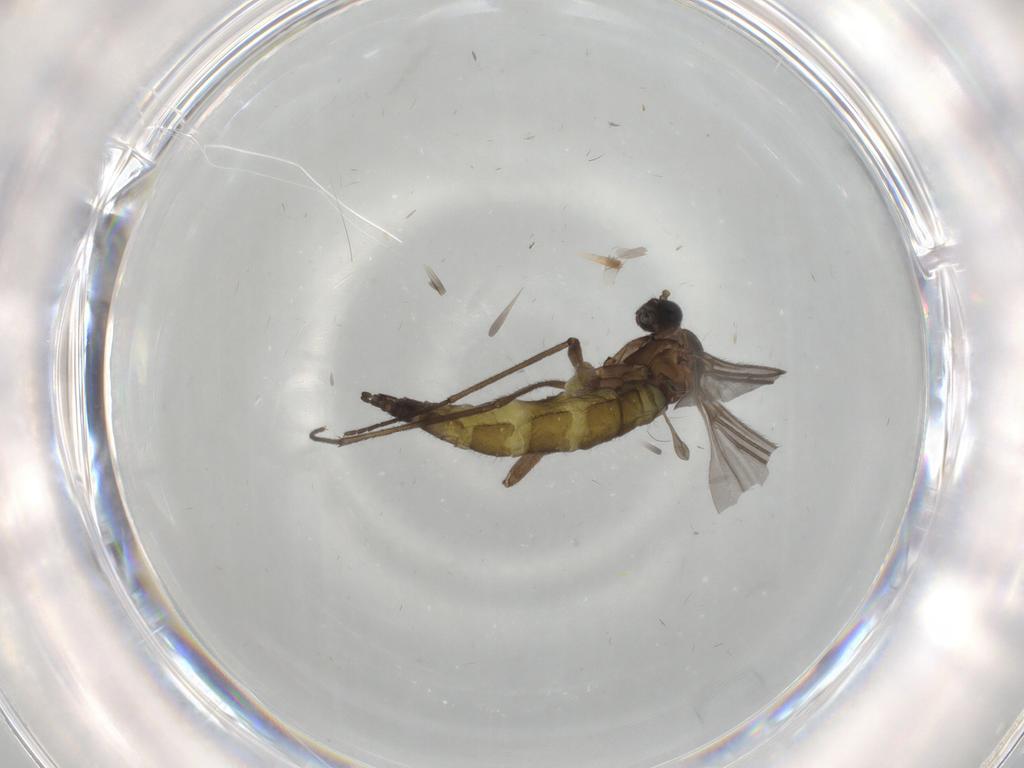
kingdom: Animalia
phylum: Arthropoda
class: Insecta
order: Diptera
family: Sciaridae
